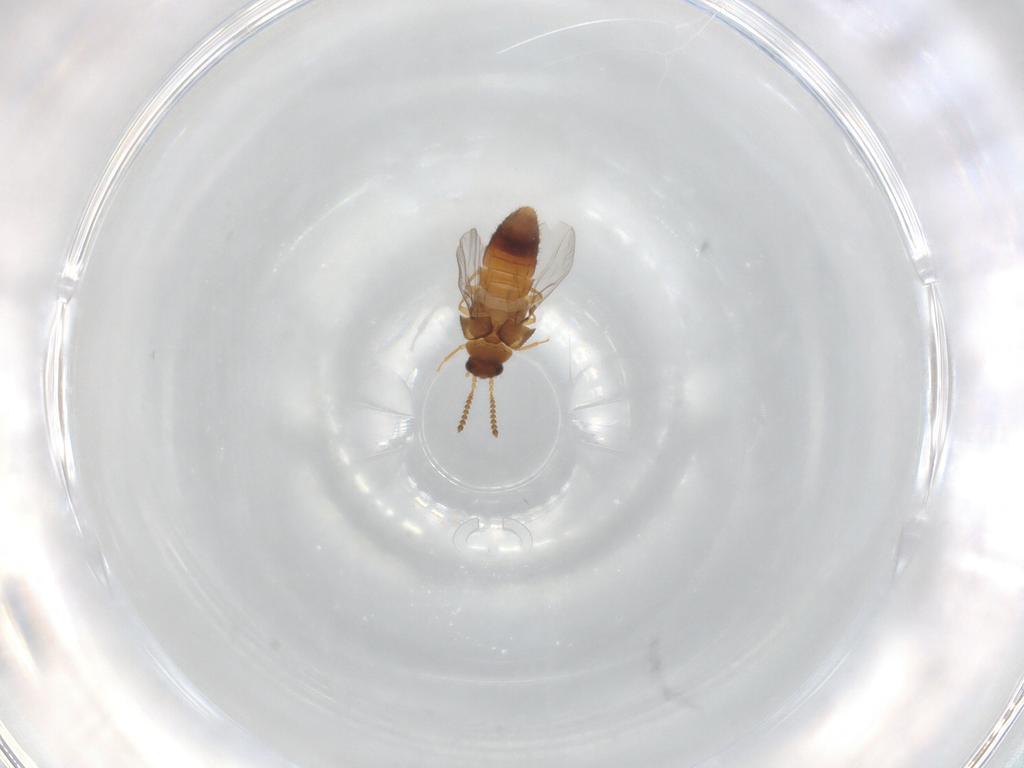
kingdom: Animalia
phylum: Arthropoda
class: Insecta
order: Coleoptera
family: Staphylinidae
